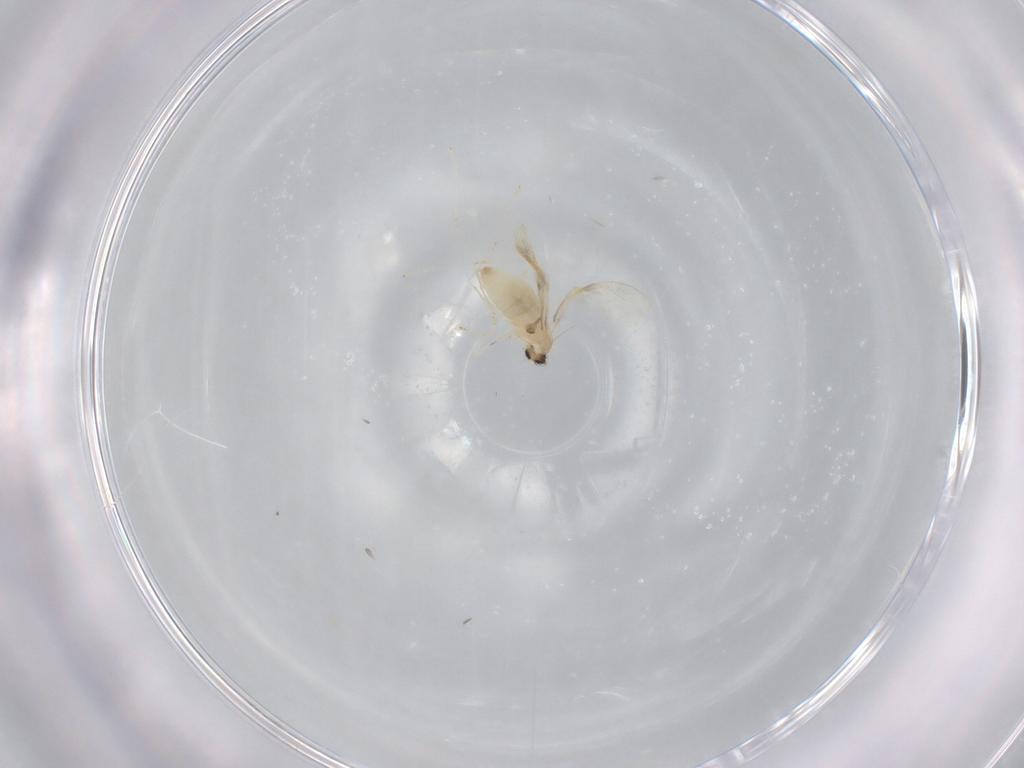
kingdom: Animalia
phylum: Arthropoda
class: Insecta
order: Diptera
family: Cecidomyiidae
